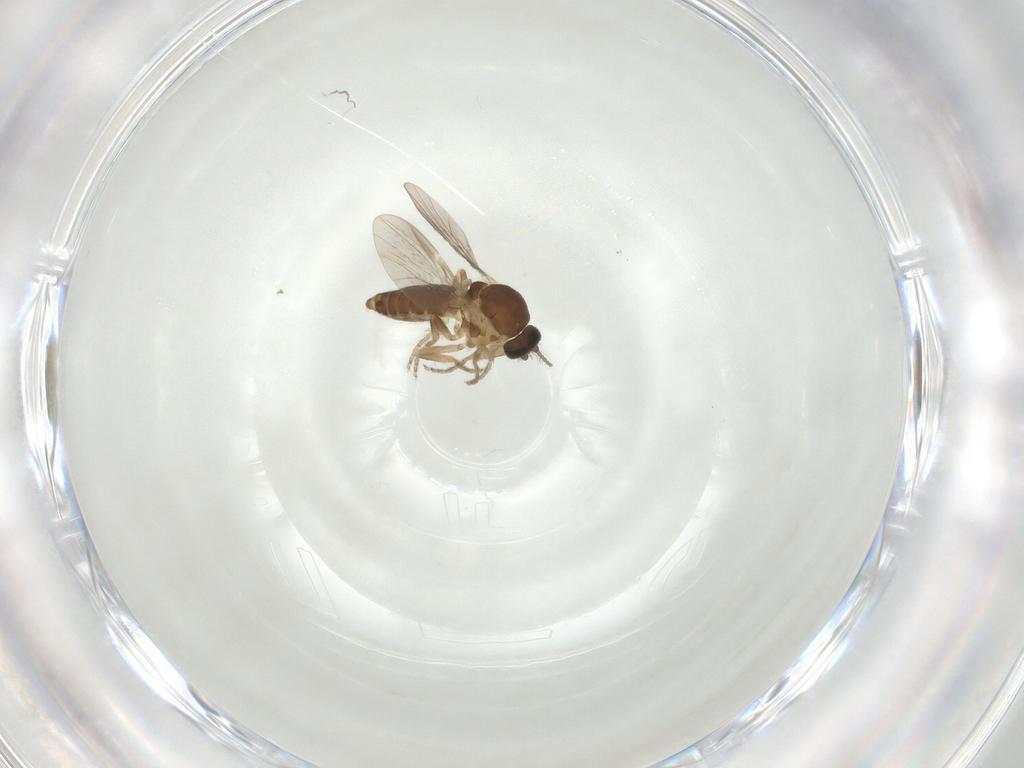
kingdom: Animalia
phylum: Arthropoda
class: Insecta
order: Diptera
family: Ceratopogonidae
